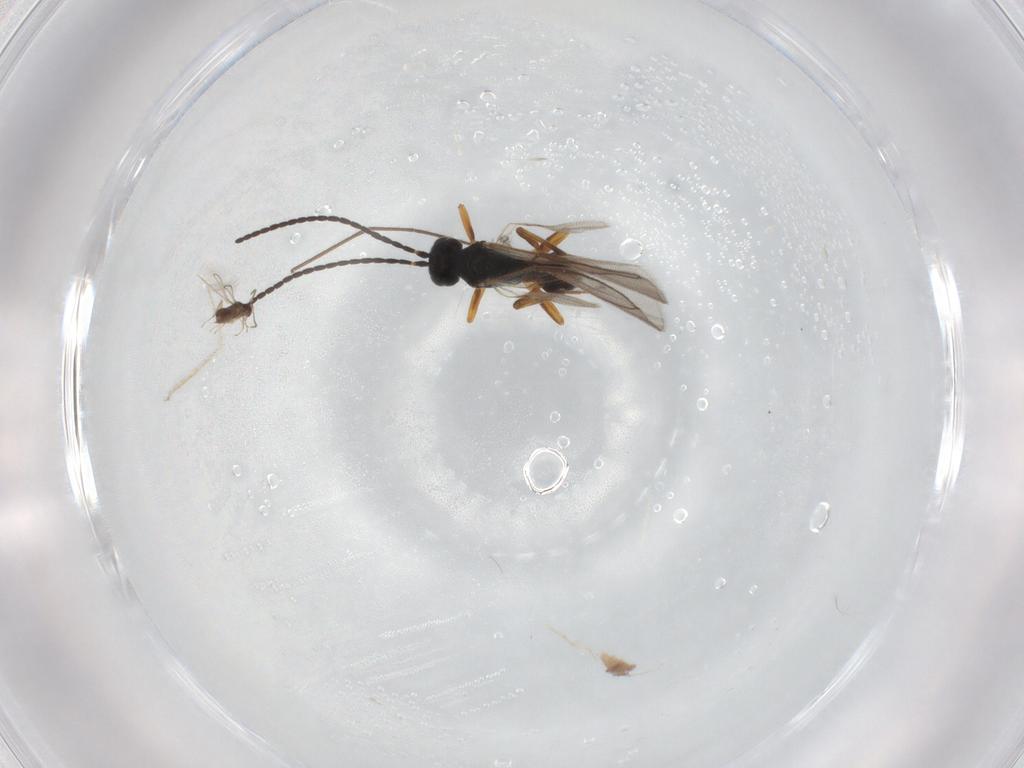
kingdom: Animalia
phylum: Arthropoda
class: Insecta
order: Hymenoptera
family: Braconidae
